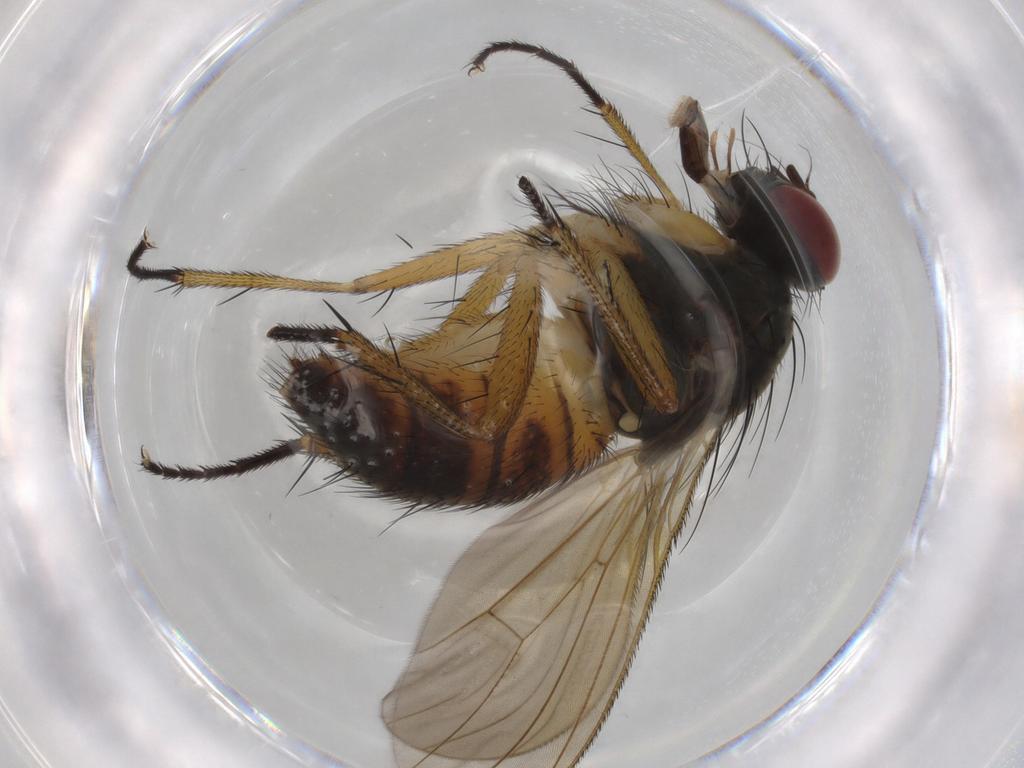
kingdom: Animalia
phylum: Arthropoda
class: Insecta
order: Diptera
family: Muscidae
